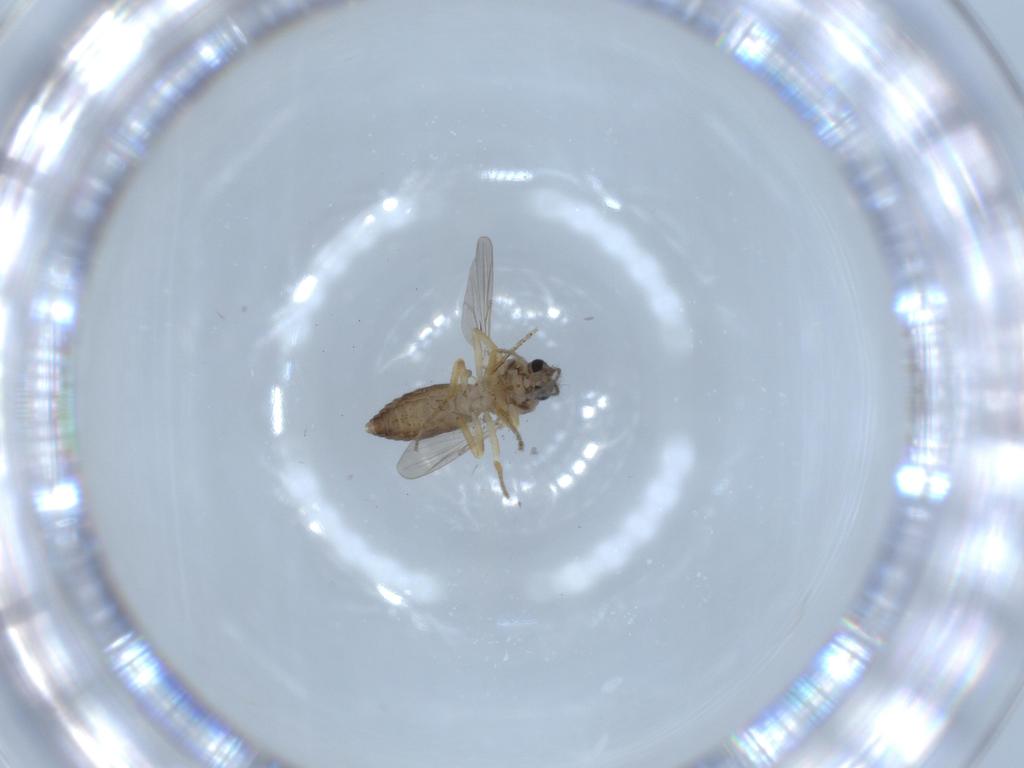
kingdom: Animalia
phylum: Arthropoda
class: Insecta
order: Diptera
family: Ceratopogonidae
